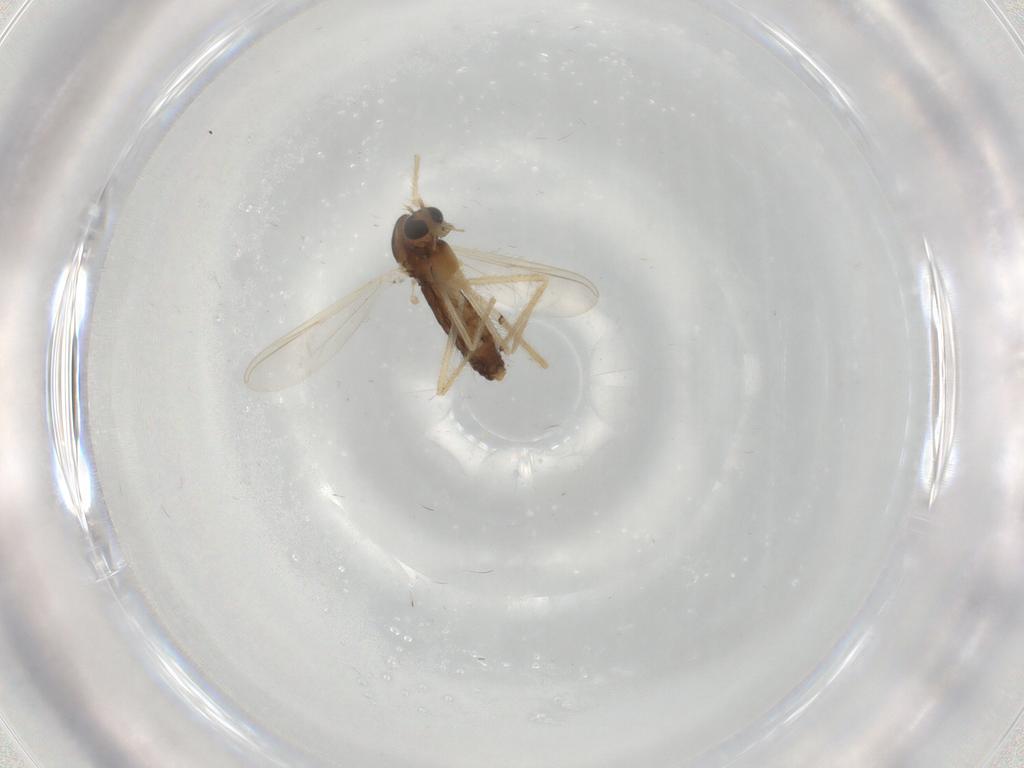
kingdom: Animalia
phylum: Arthropoda
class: Insecta
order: Diptera
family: Chironomidae
